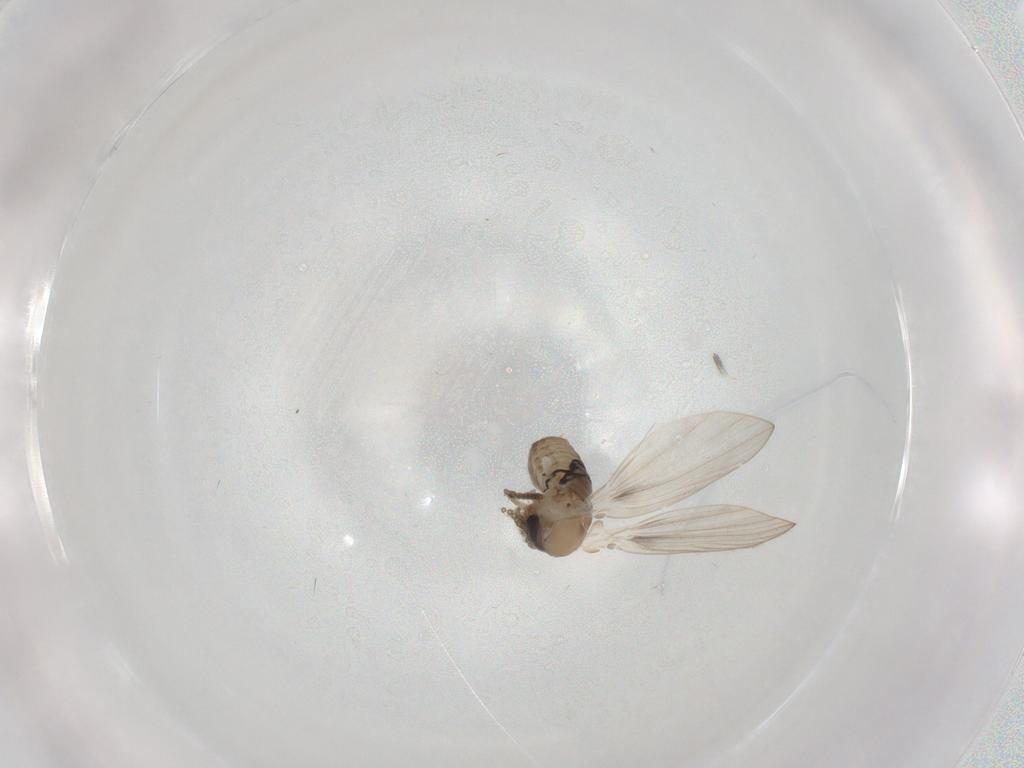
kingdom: Animalia
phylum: Arthropoda
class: Insecta
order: Diptera
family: Psychodidae
